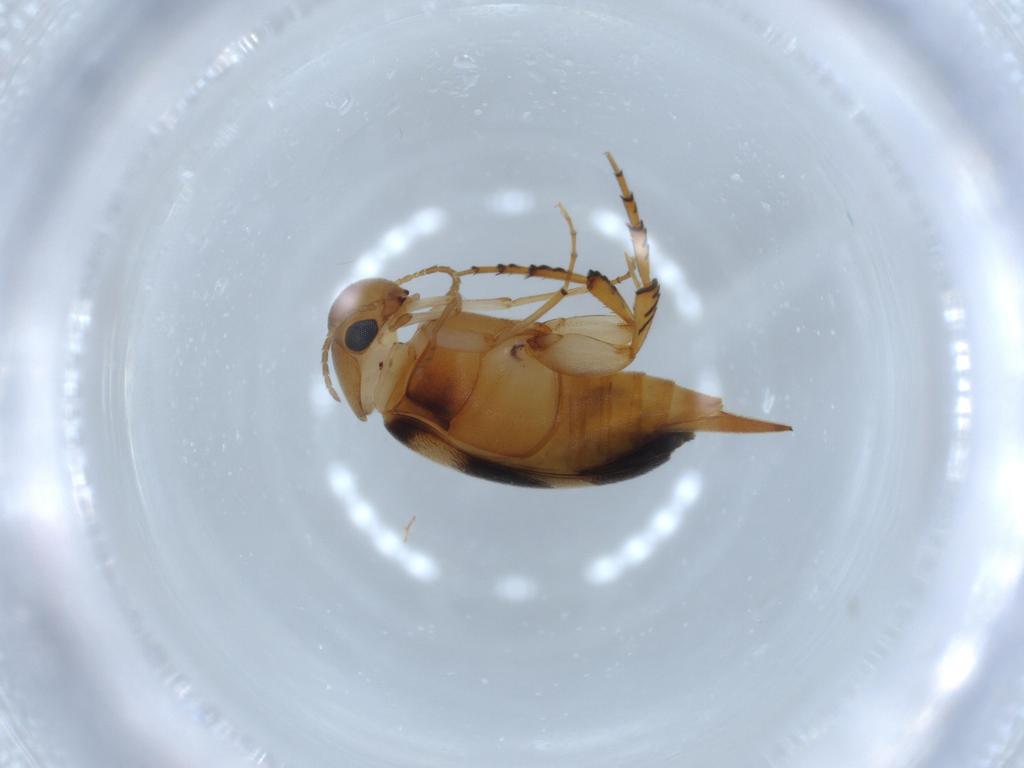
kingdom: Animalia
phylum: Arthropoda
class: Insecta
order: Coleoptera
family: Mordellidae
